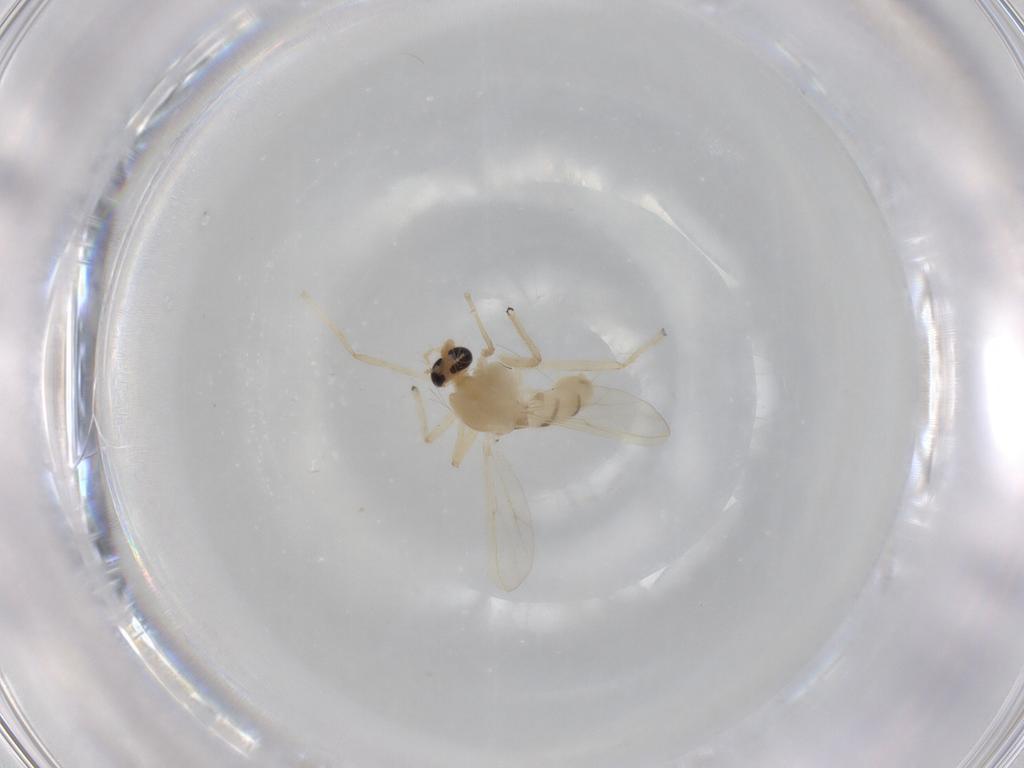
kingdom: Animalia
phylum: Arthropoda
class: Insecta
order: Diptera
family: Chironomidae
